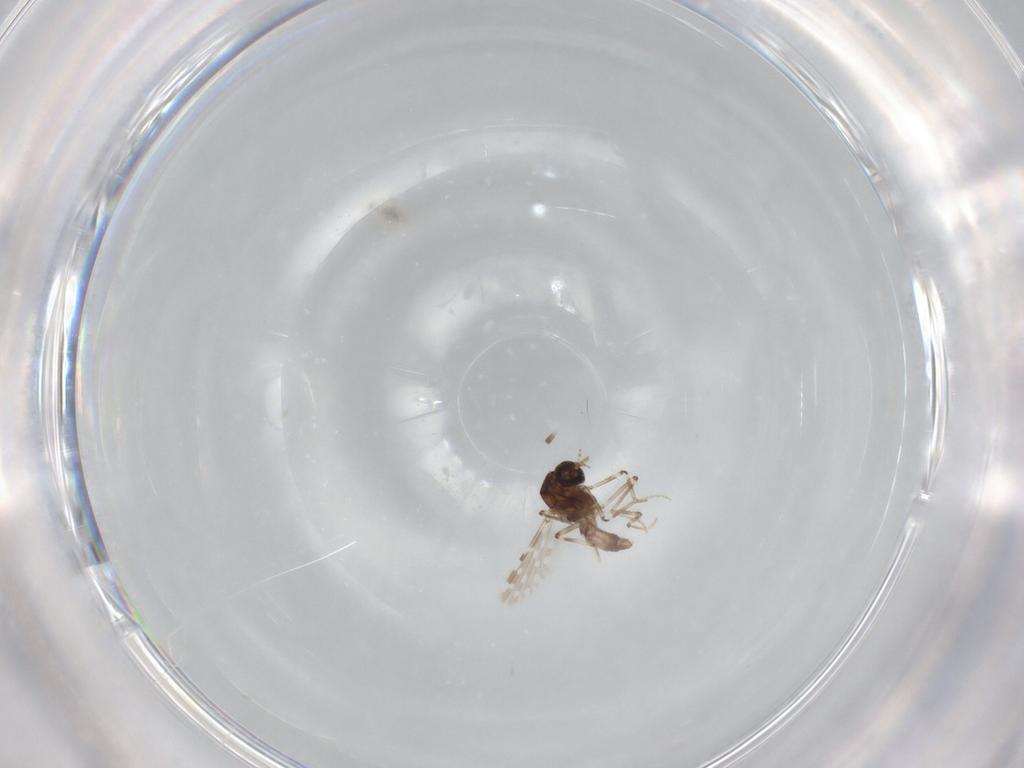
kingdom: Animalia
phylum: Arthropoda
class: Insecta
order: Diptera
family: Ceratopogonidae
